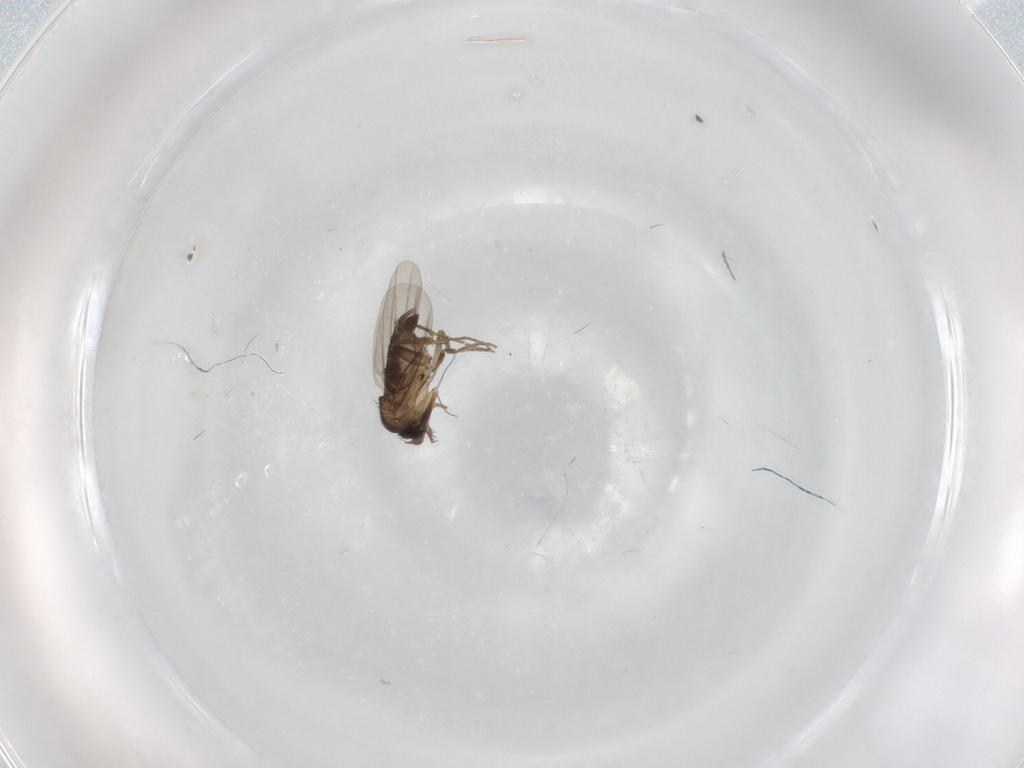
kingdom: Animalia
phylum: Arthropoda
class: Insecta
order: Diptera
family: Phoridae
